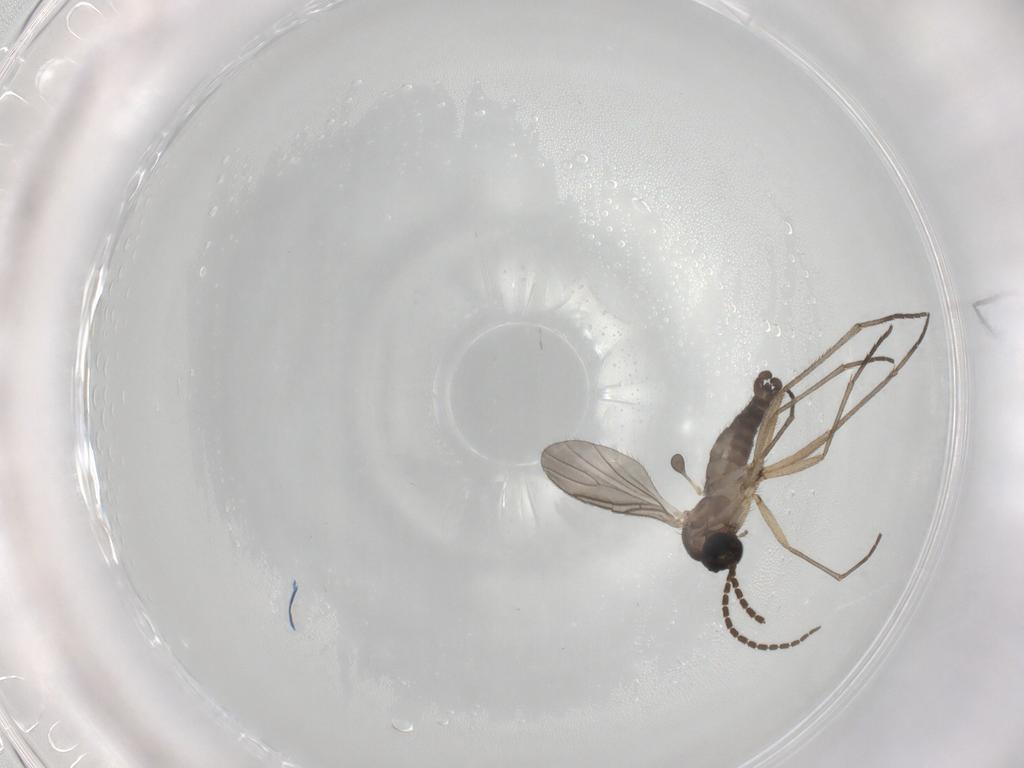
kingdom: Animalia
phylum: Arthropoda
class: Insecta
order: Diptera
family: Sciaridae
